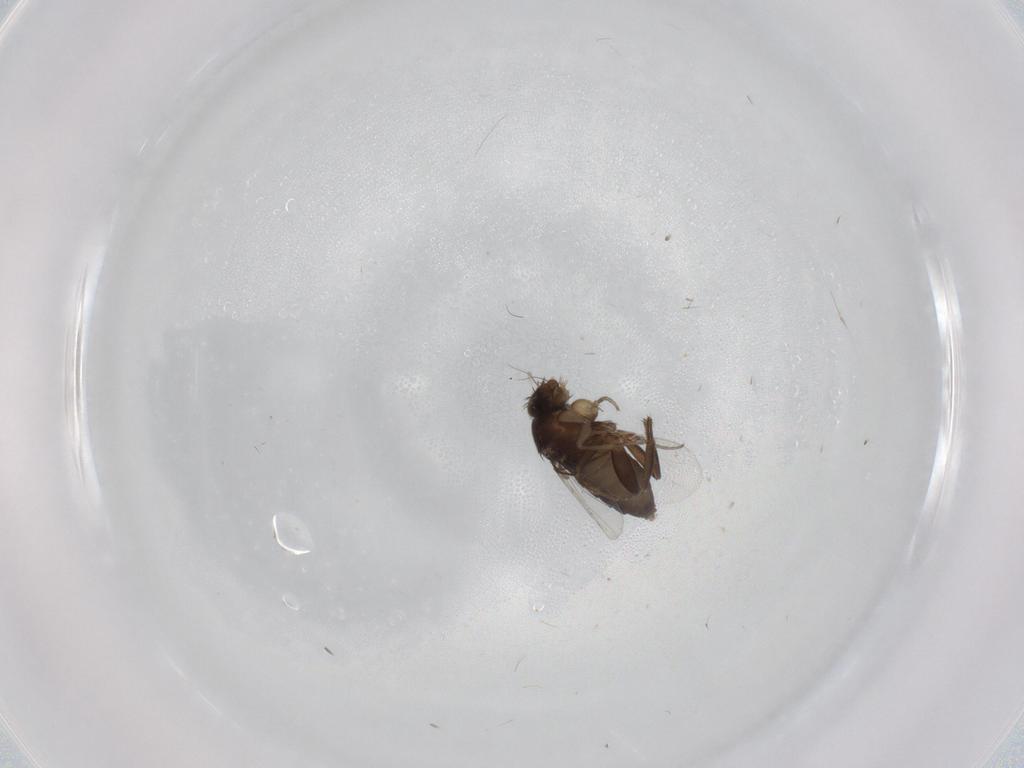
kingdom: Animalia
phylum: Arthropoda
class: Insecta
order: Diptera
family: Phoridae
